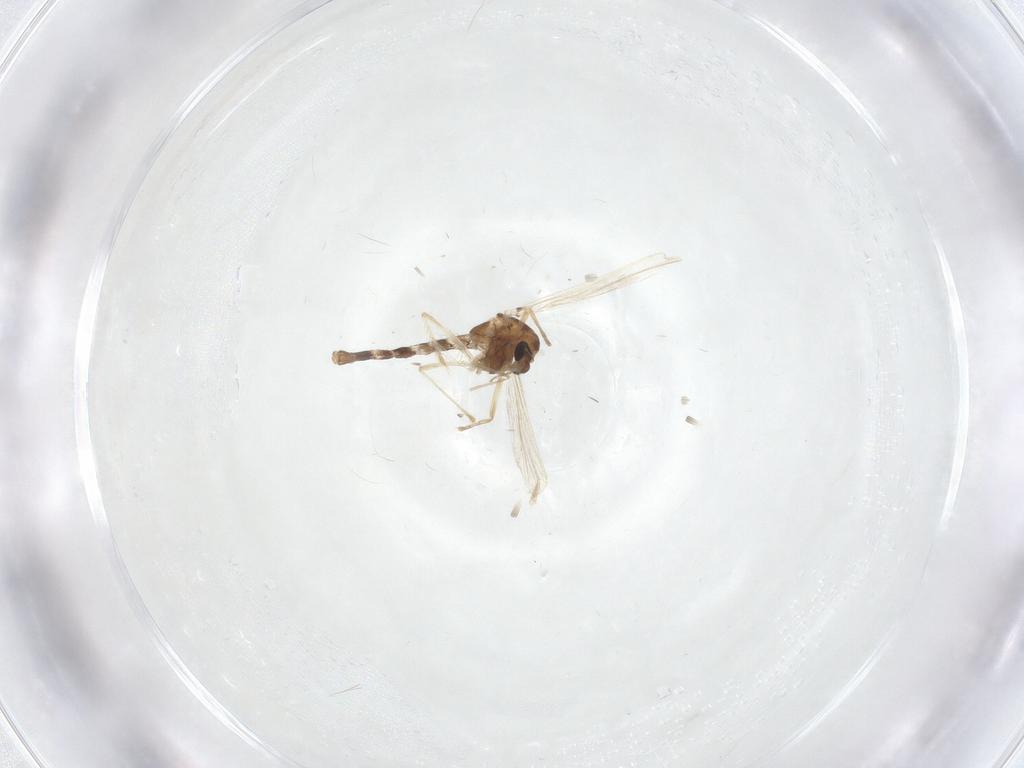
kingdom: Animalia
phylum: Arthropoda
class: Insecta
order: Diptera
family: Chironomidae
